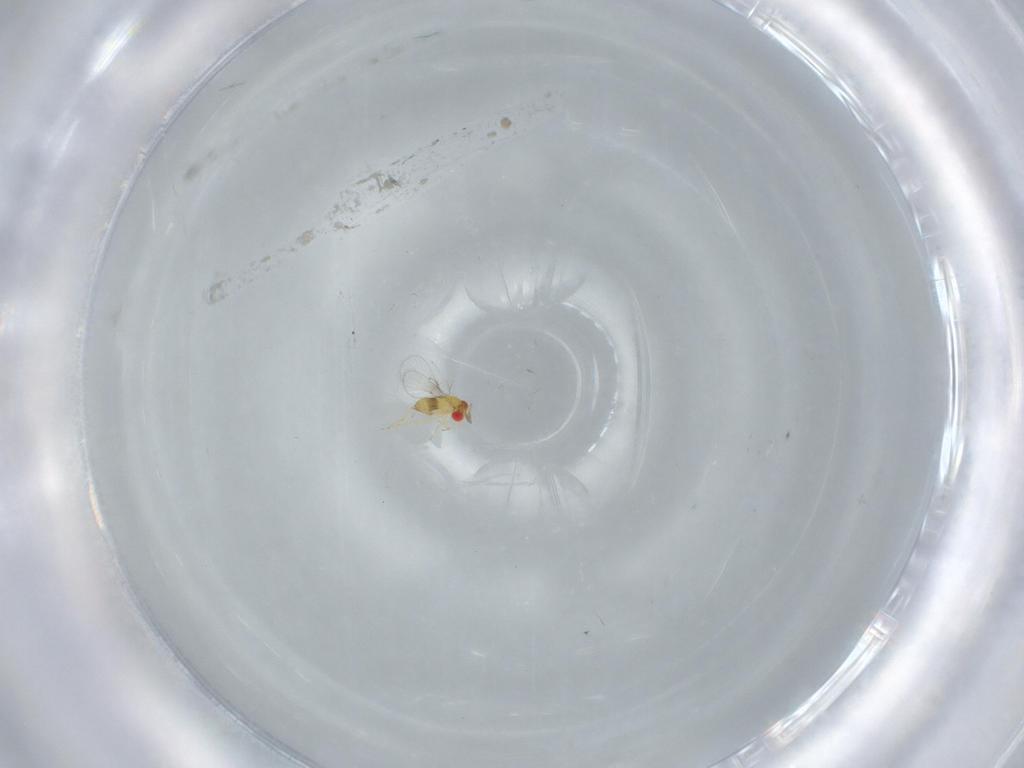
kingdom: Animalia
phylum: Arthropoda
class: Insecta
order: Hymenoptera
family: Trichogrammatidae
